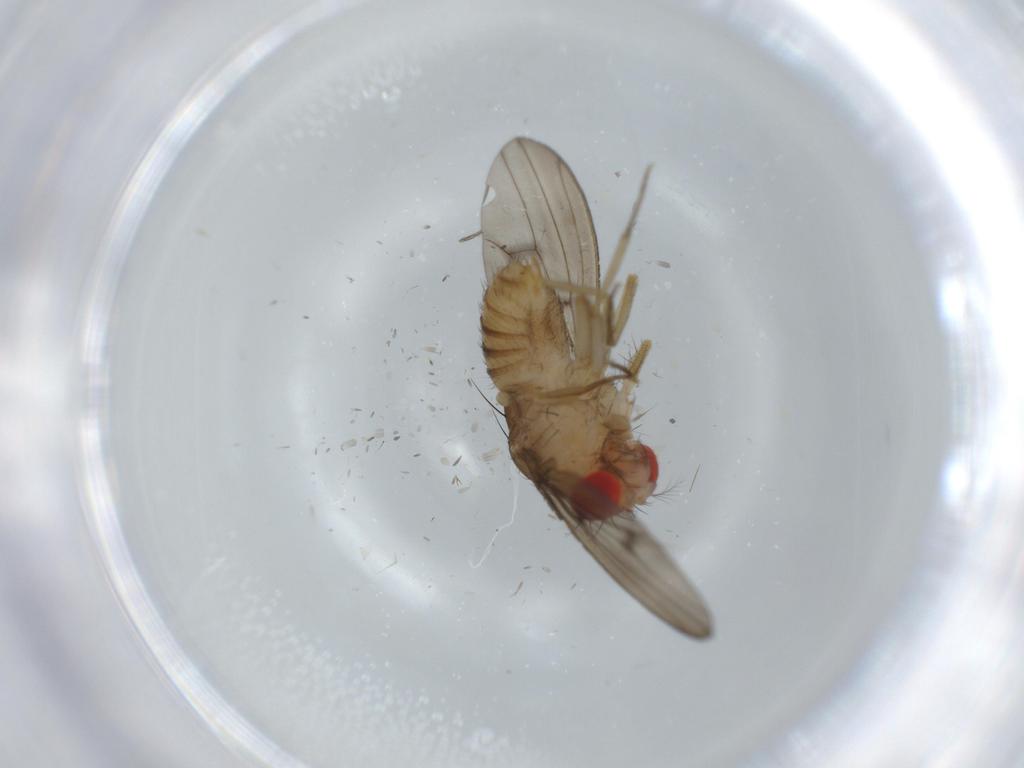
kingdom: Animalia
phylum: Arthropoda
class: Insecta
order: Diptera
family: Drosophilidae
